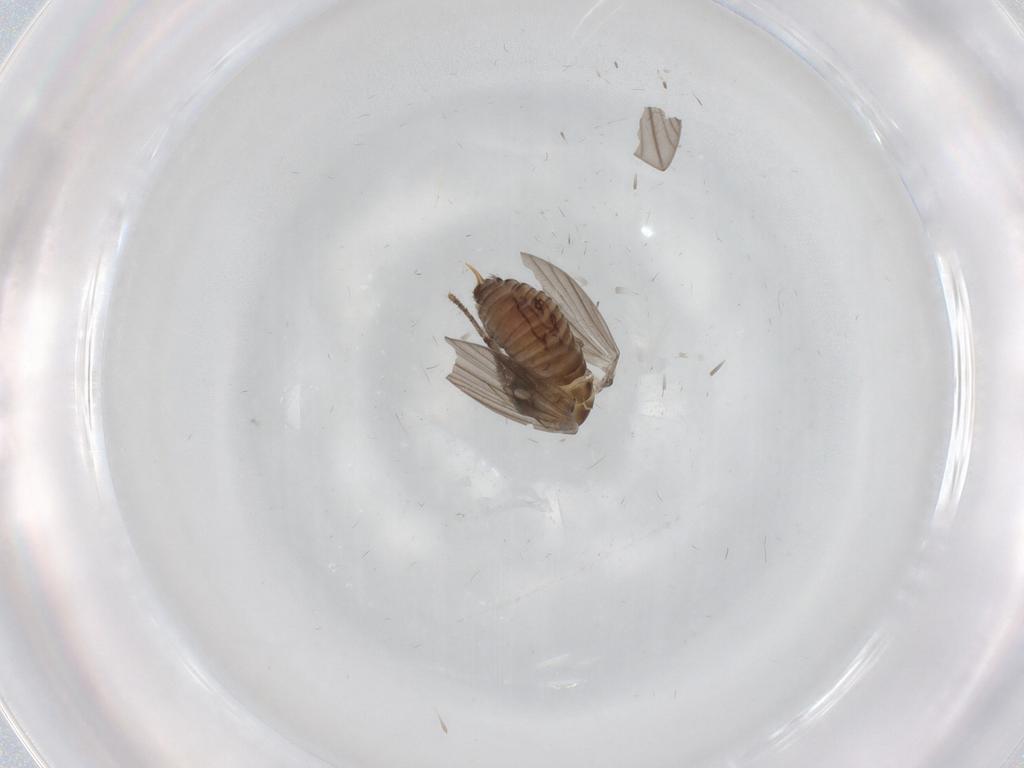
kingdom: Animalia
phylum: Arthropoda
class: Insecta
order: Diptera
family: Psychodidae
